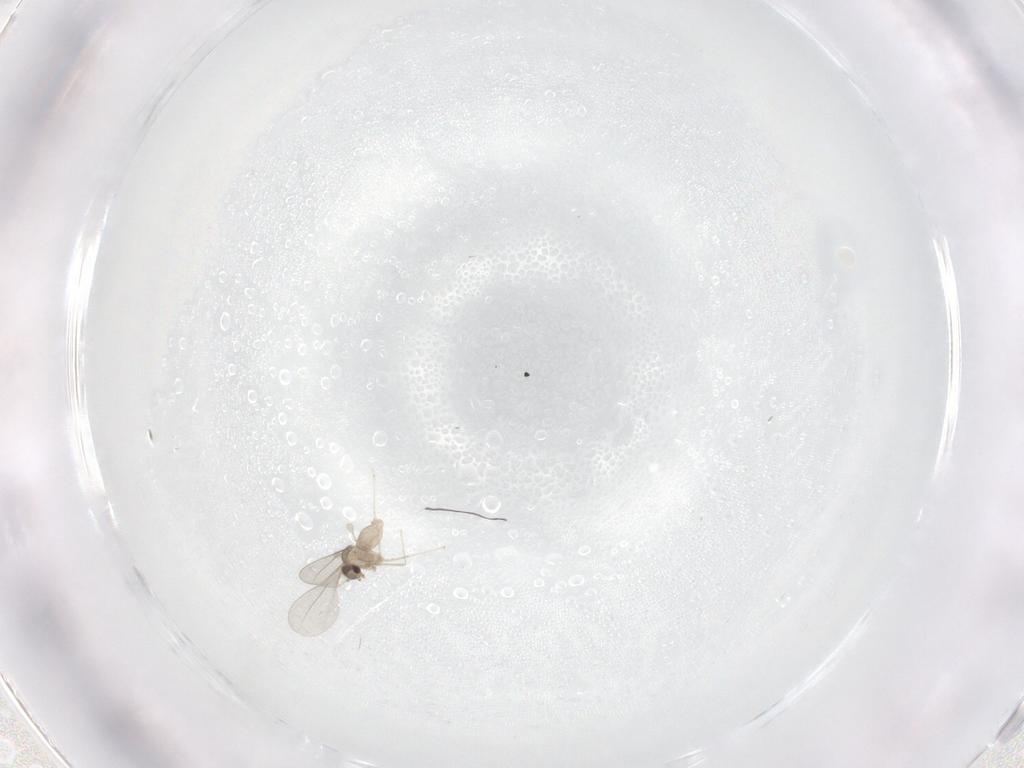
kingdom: Animalia
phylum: Arthropoda
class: Insecta
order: Diptera
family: Cecidomyiidae
